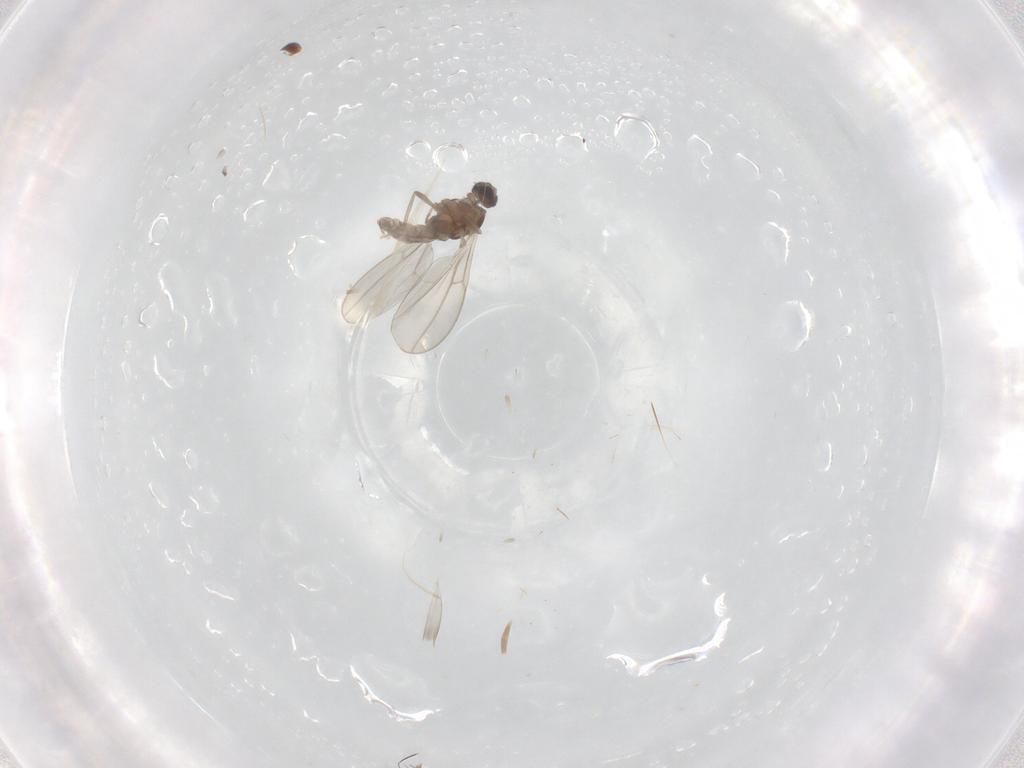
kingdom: Animalia
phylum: Arthropoda
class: Insecta
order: Diptera
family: Cecidomyiidae
